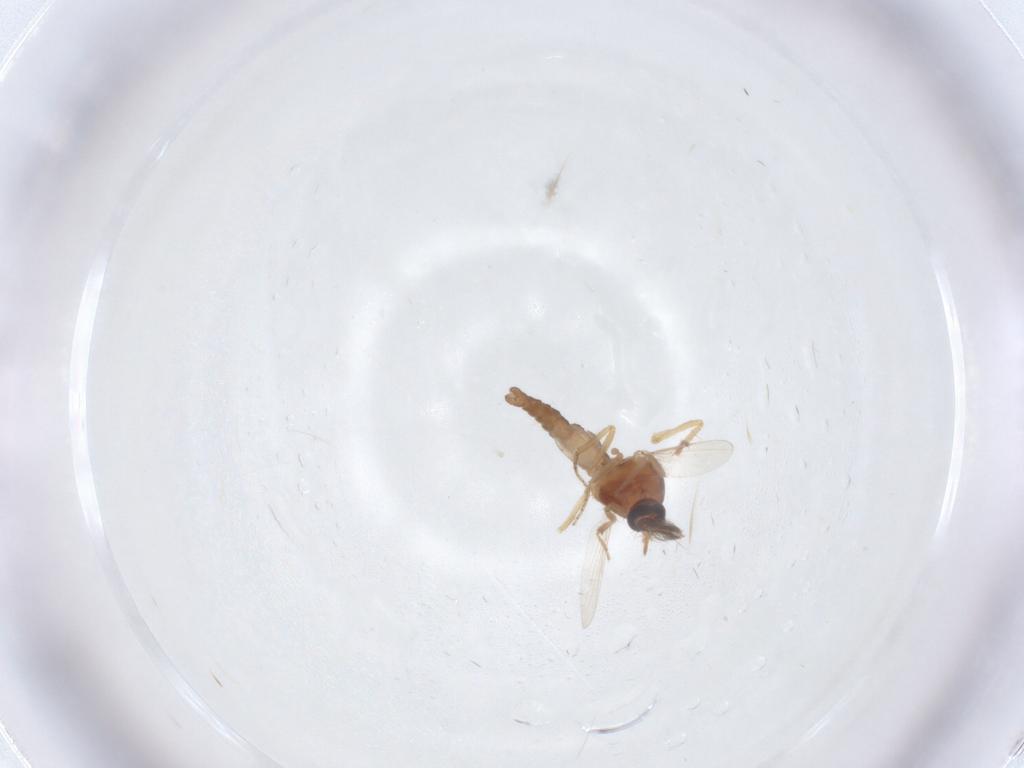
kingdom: Animalia
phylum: Arthropoda
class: Insecta
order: Diptera
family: Ceratopogonidae
